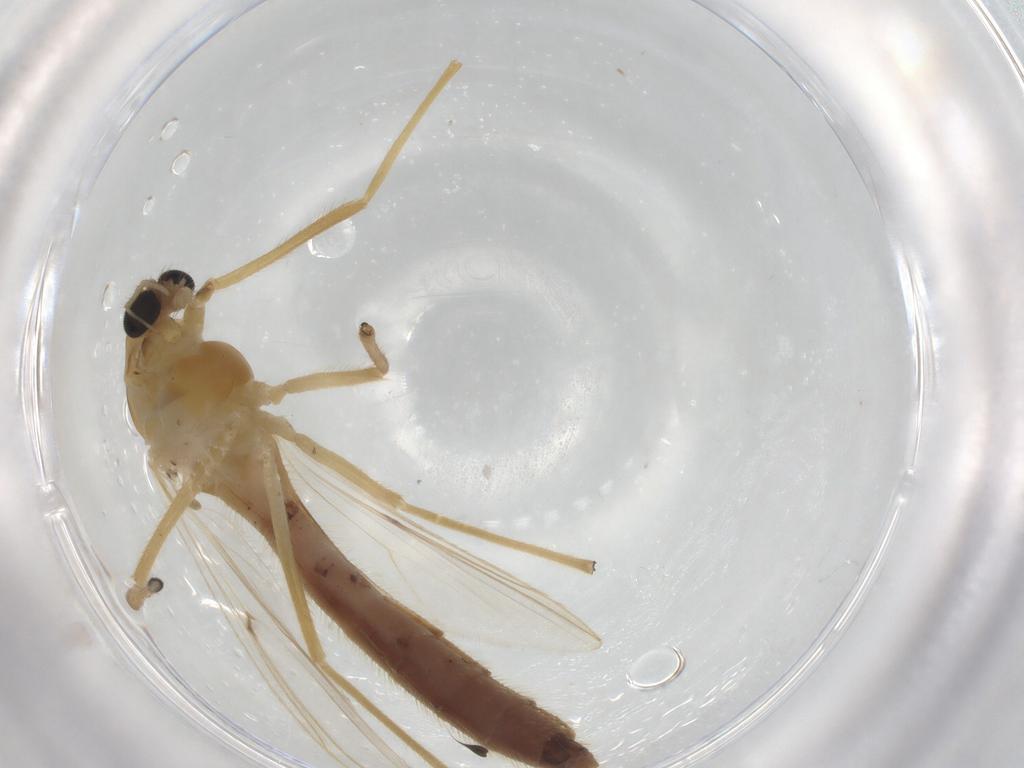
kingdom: Animalia
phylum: Arthropoda
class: Insecta
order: Diptera
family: Chironomidae
